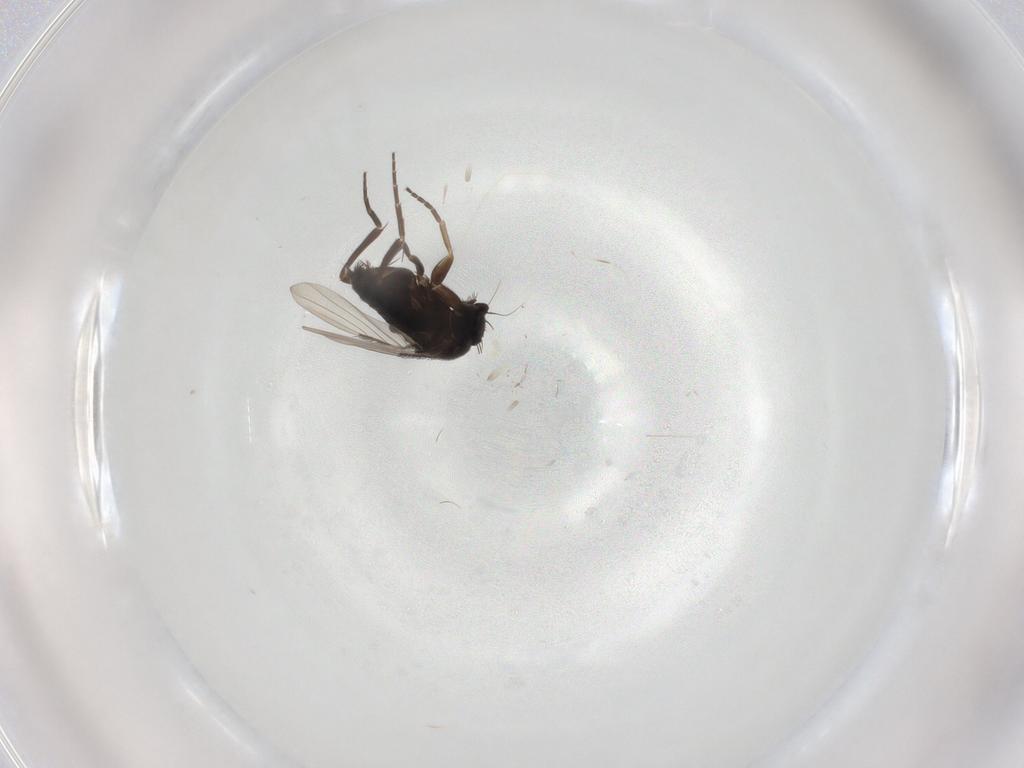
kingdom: Animalia
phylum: Arthropoda
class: Insecta
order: Diptera
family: Phoridae
